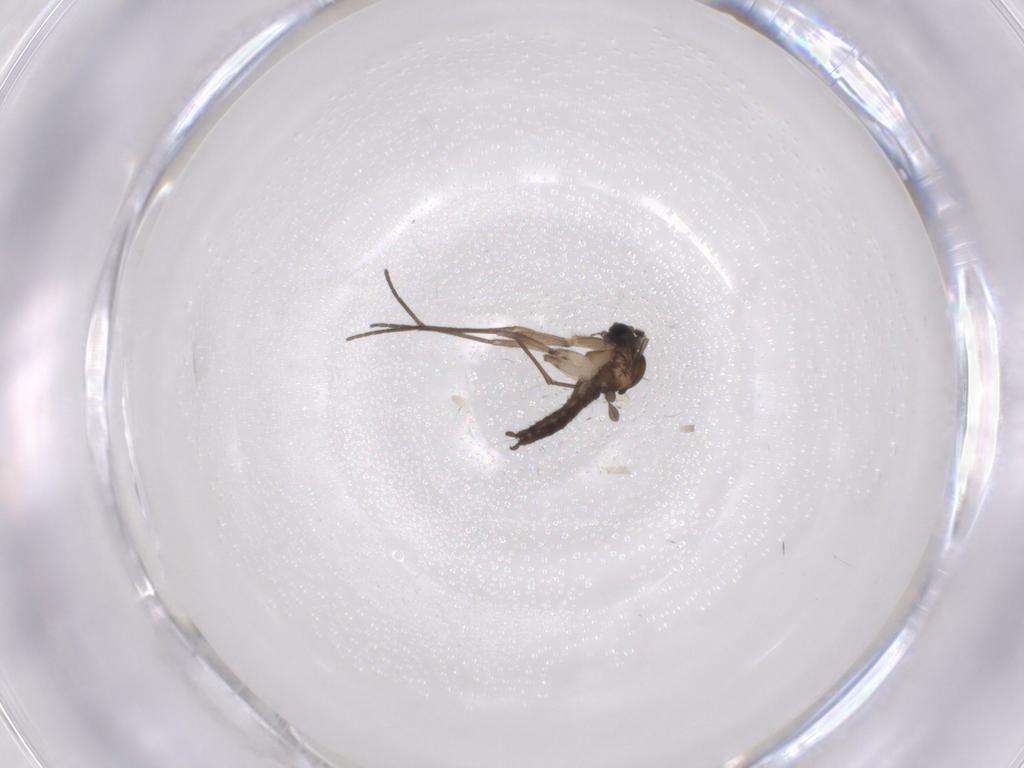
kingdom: Animalia
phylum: Arthropoda
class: Insecta
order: Diptera
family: Sciaridae
